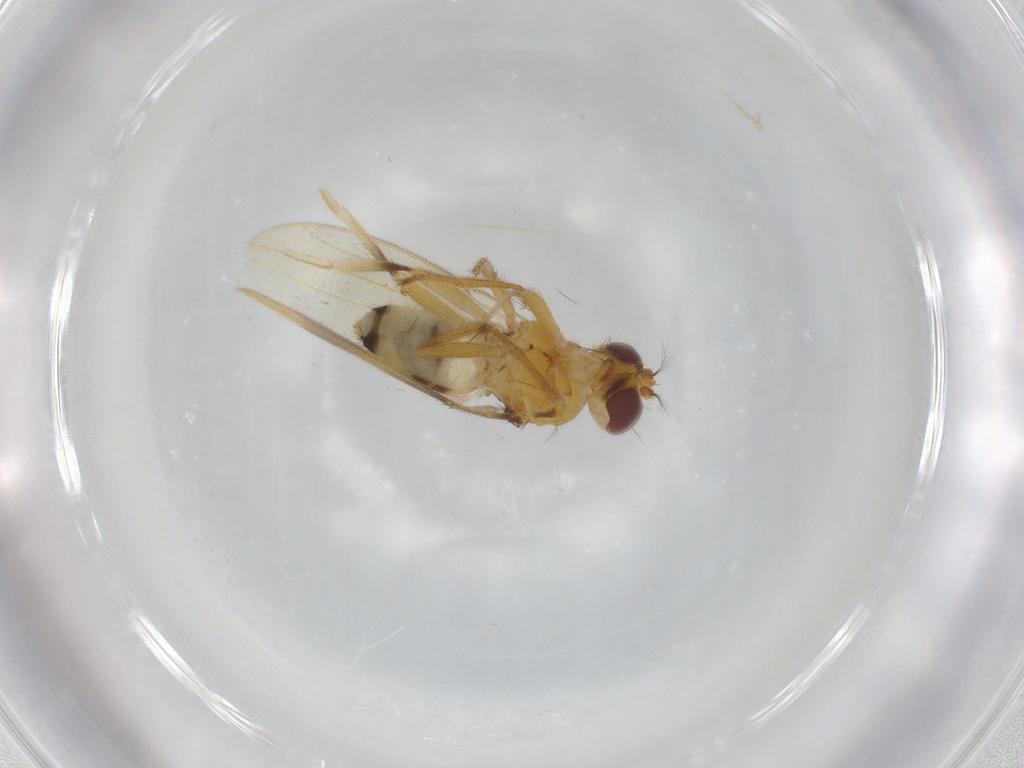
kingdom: Animalia
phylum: Arthropoda
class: Insecta
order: Diptera
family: Periscelididae
